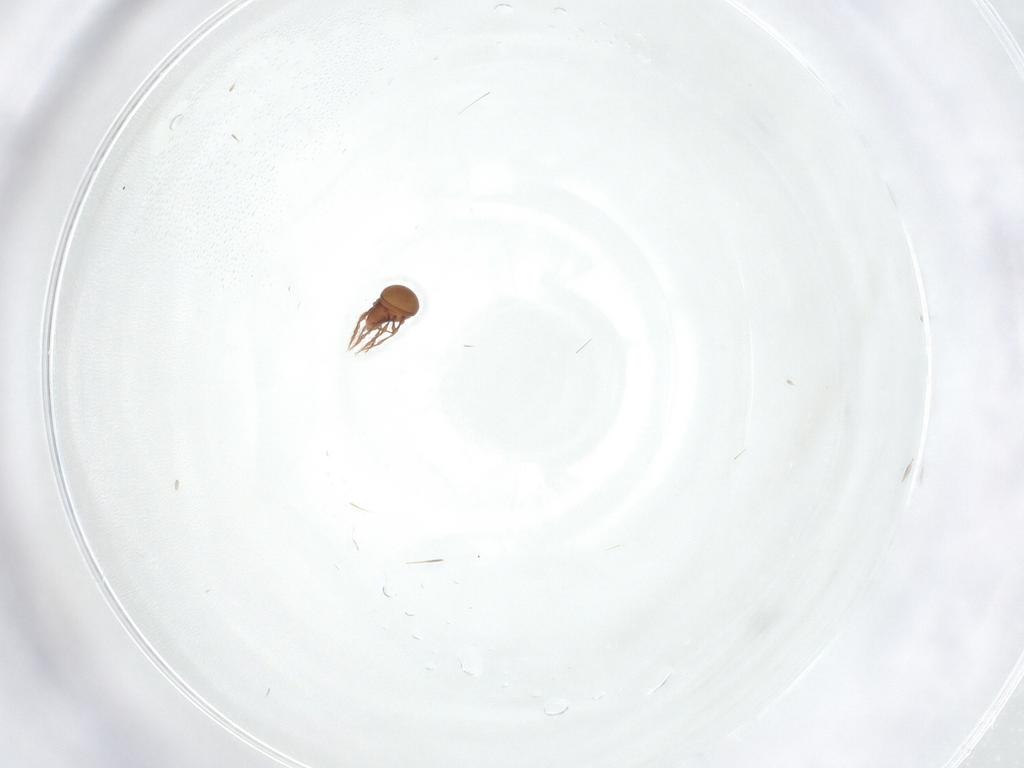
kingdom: Animalia
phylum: Arthropoda
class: Arachnida
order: Sarcoptiformes
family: Oppiidae
